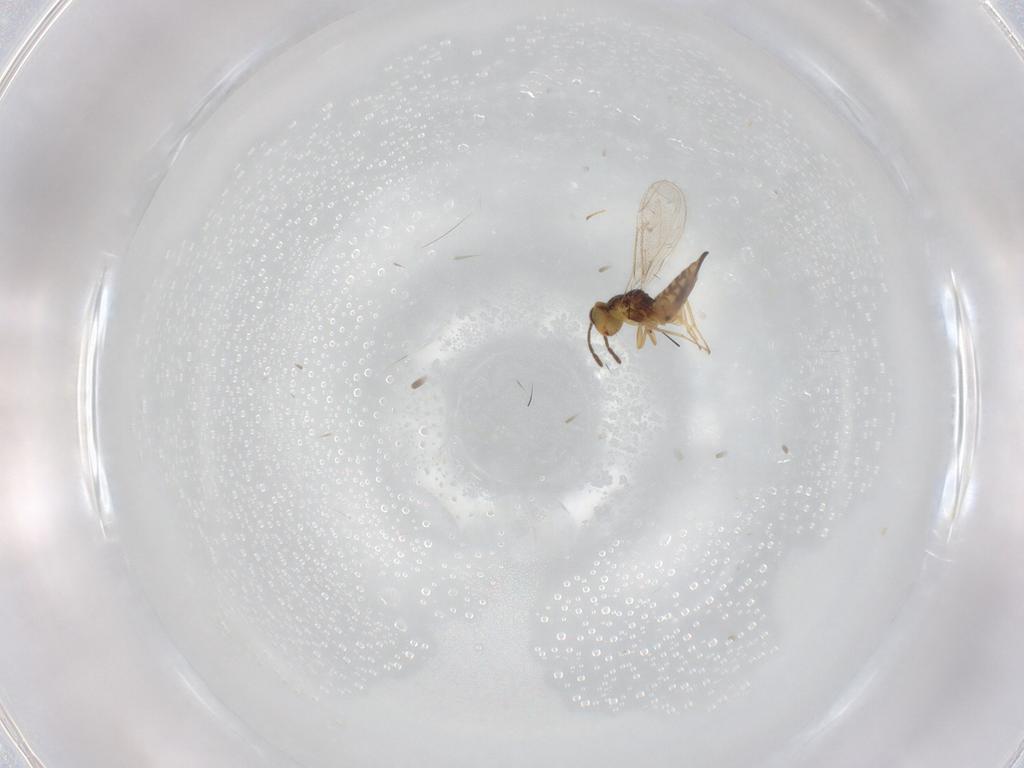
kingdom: Animalia
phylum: Arthropoda
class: Insecta
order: Hymenoptera
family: Eulophidae
